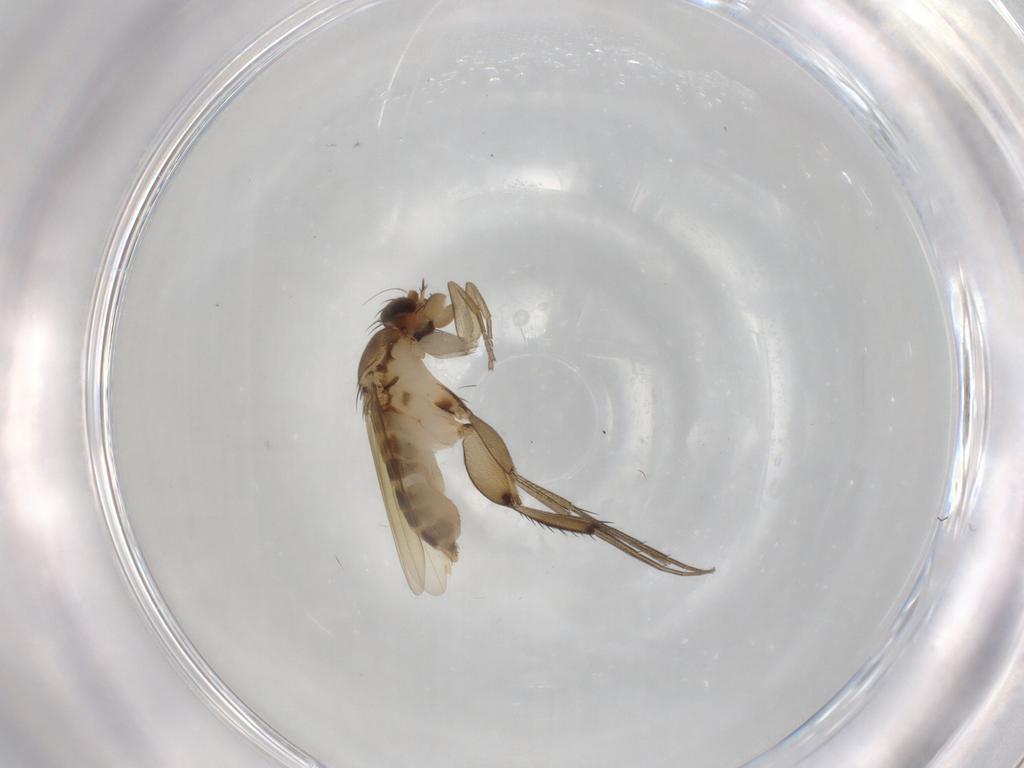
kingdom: Animalia
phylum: Arthropoda
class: Insecta
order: Diptera
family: Phoridae
